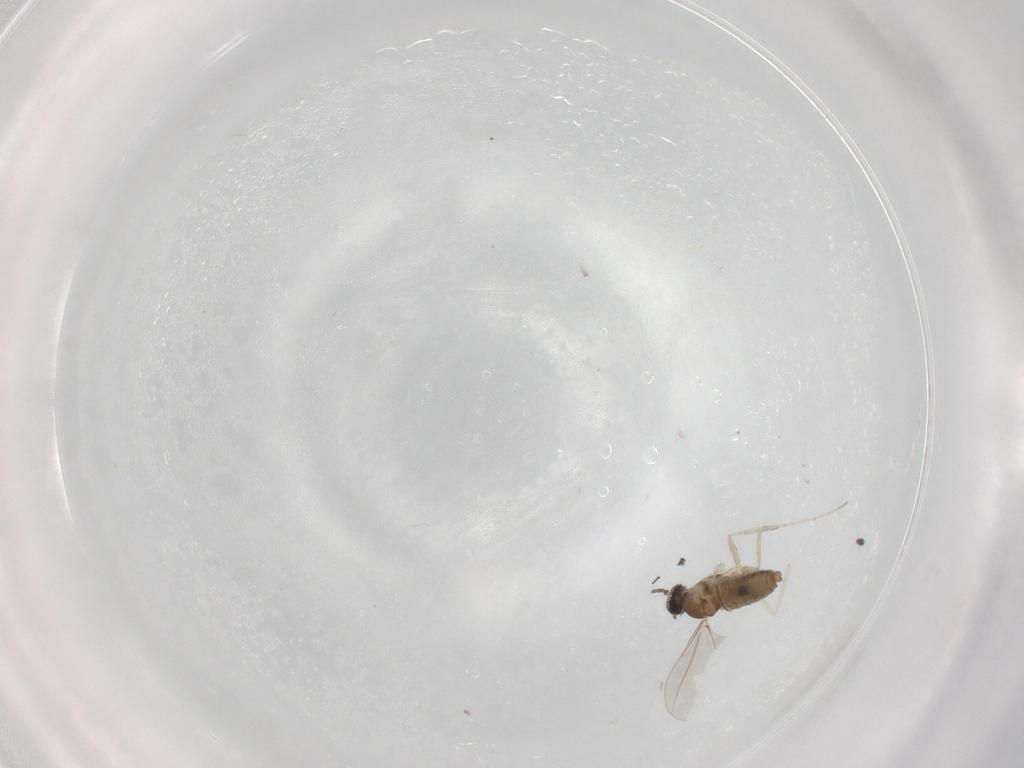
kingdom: Animalia
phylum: Arthropoda
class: Insecta
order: Diptera
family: Cecidomyiidae
